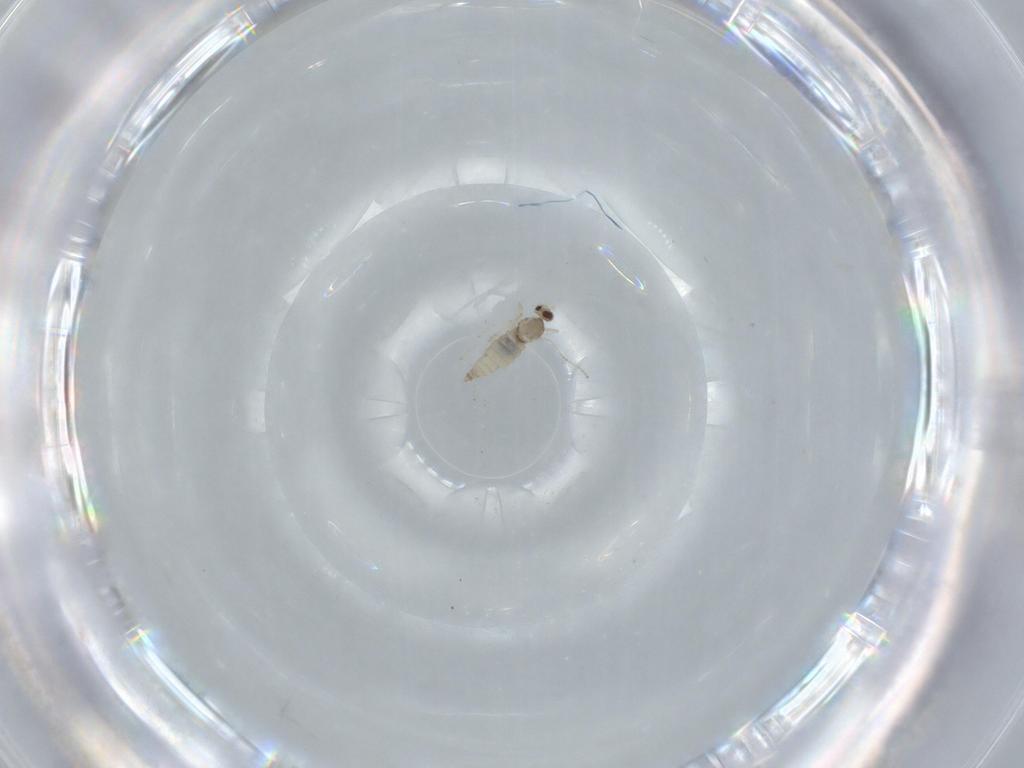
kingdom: Animalia
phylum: Arthropoda
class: Insecta
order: Diptera
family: Cecidomyiidae
